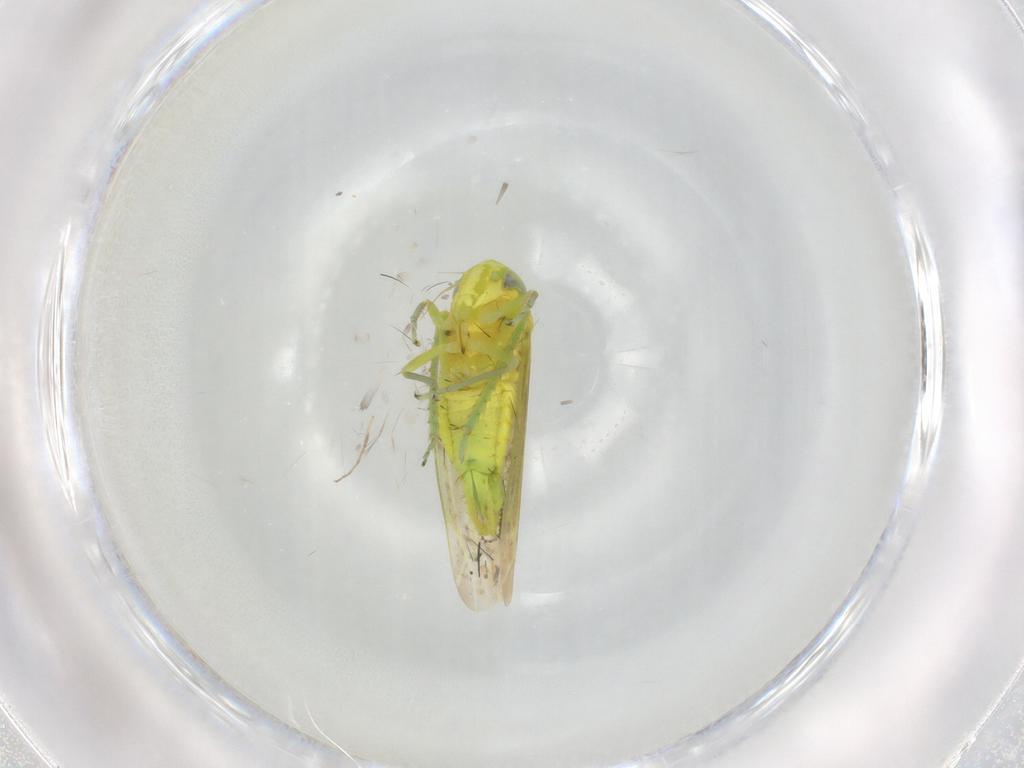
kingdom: Animalia
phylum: Arthropoda
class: Insecta
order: Hemiptera
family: Cicadellidae
